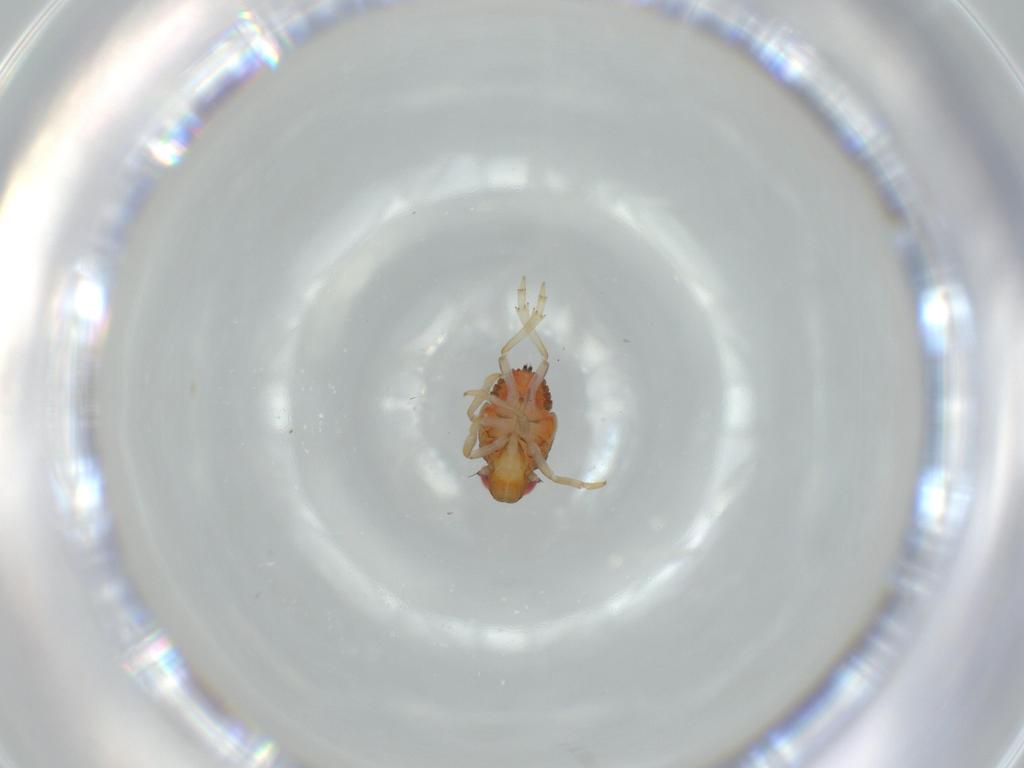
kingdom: Animalia
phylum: Arthropoda
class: Insecta
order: Hemiptera
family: Issidae
